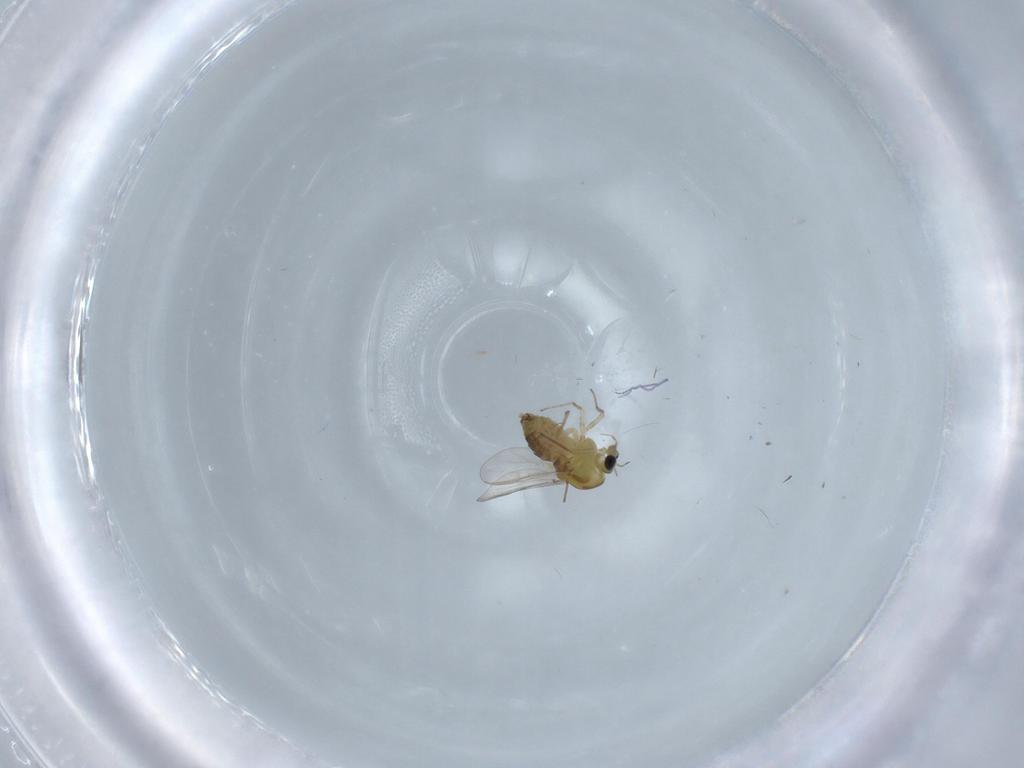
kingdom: Animalia
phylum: Arthropoda
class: Insecta
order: Diptera
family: Chironomidae
